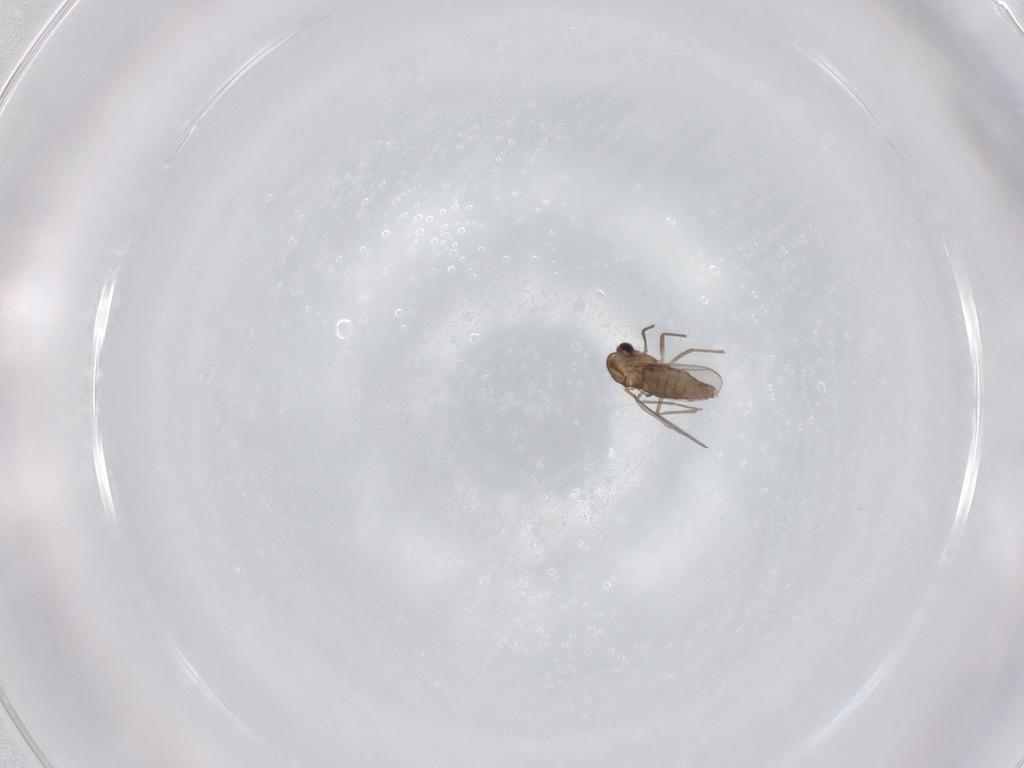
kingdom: Animalia
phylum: Arthropoda
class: Insecta
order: Diptera
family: Chironomidae
